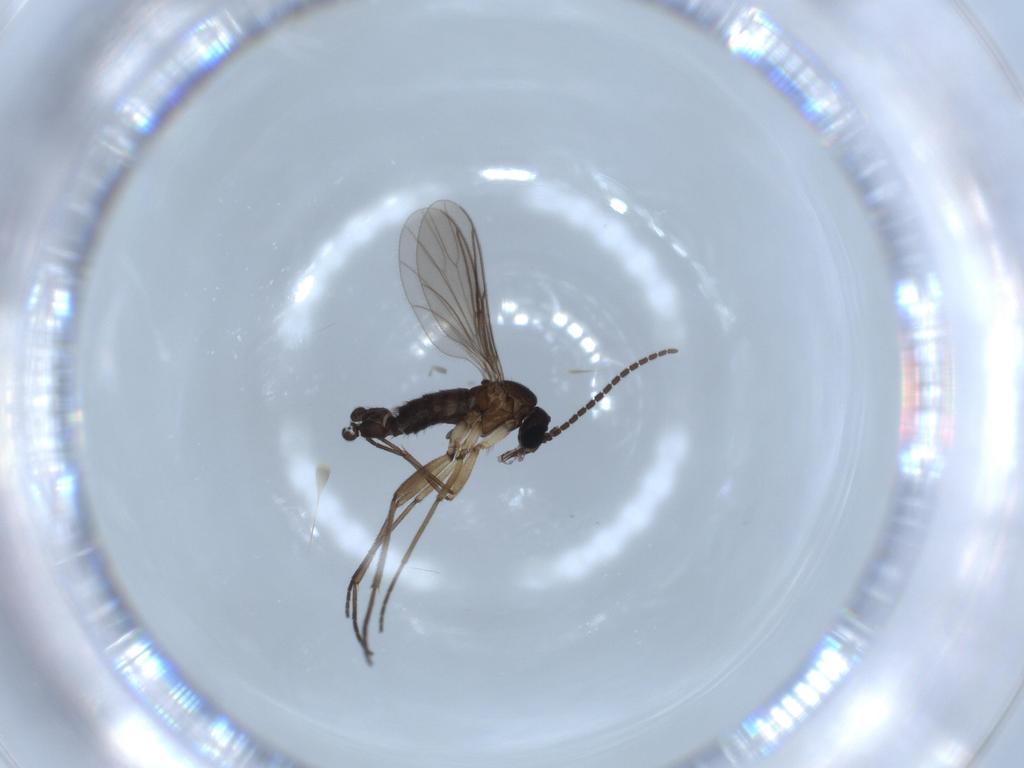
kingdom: Animalia
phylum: Arthropoda
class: Insecta
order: Diptera
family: Sciaridae
